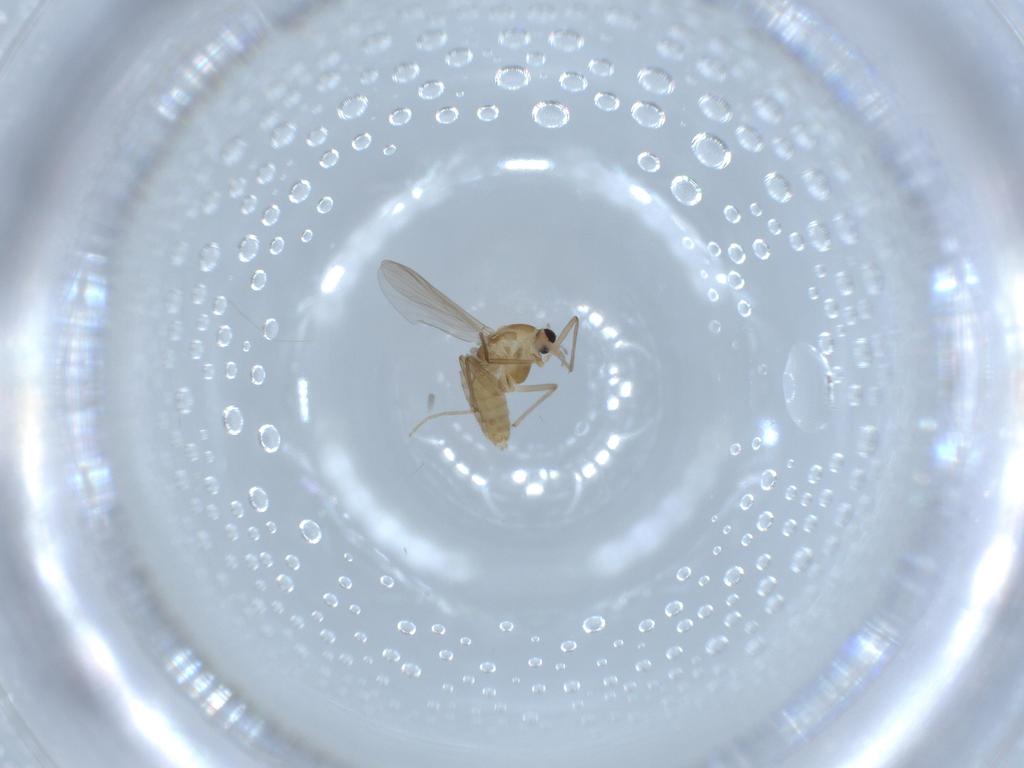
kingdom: Animalia
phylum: Arthropoda
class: Insecta
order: Diptera
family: Chironomidae
